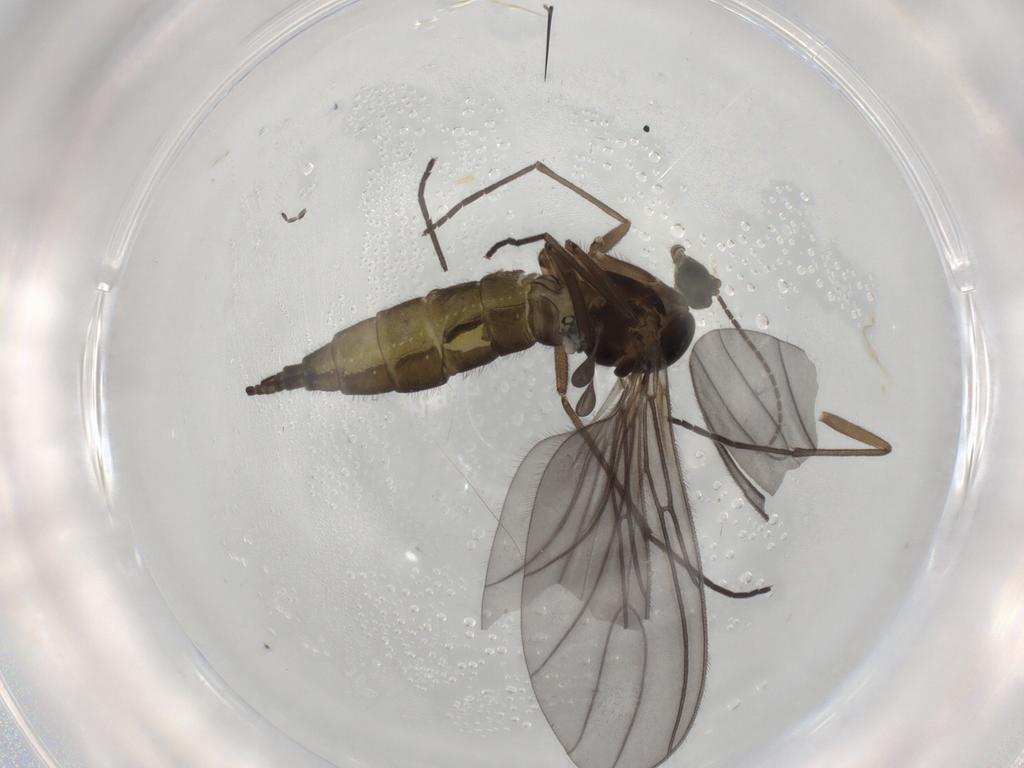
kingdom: Animalia
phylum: Arthropoda
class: Insecta
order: Diptera
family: Sciaridae
